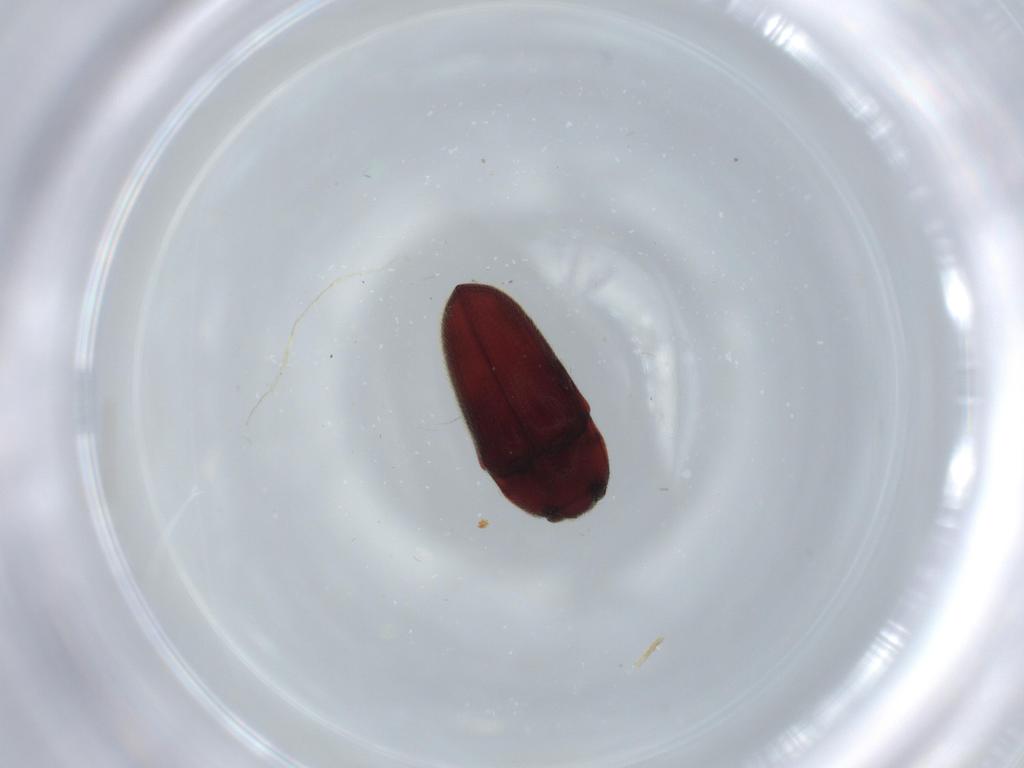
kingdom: Animalia
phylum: Arthropoda
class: Insecta
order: Coleoptera
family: Throscidae
